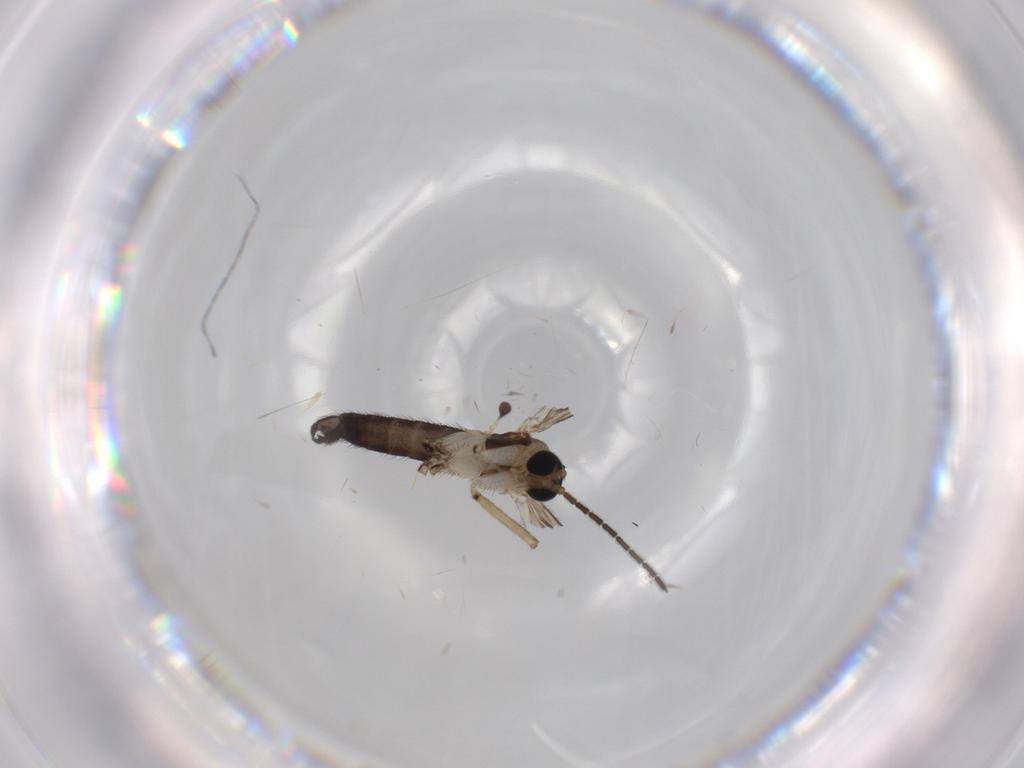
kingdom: Animalia
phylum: Arthropoda
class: Insecta
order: Diptera
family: Sciaridae
